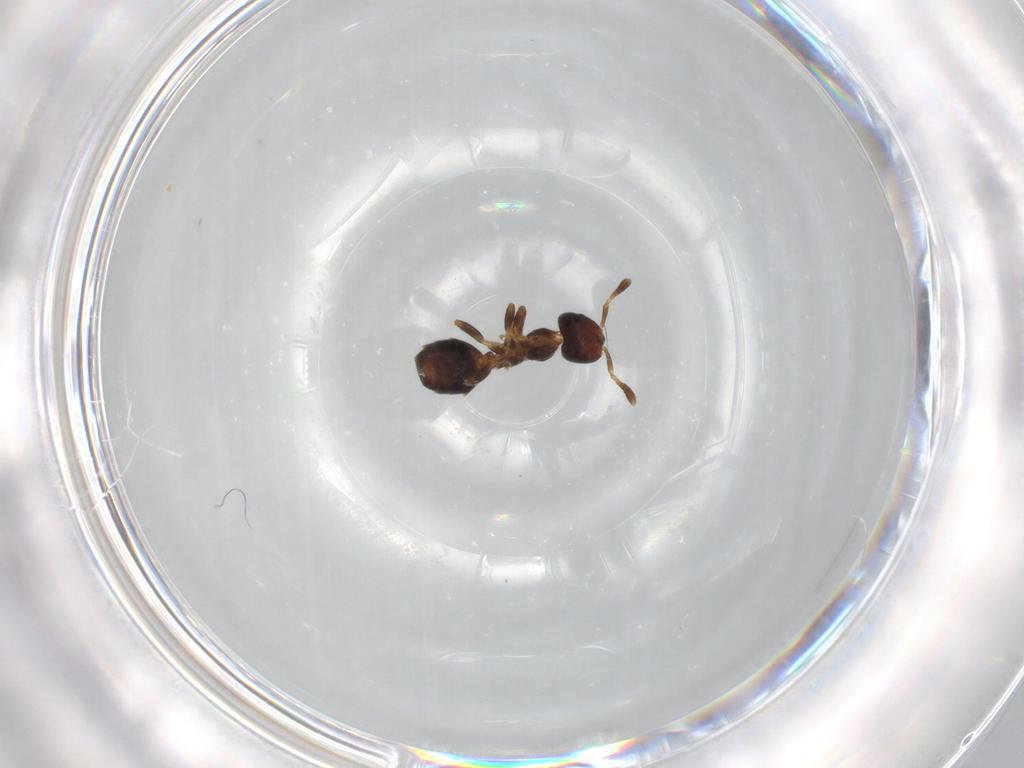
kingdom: Animalia
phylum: Arthropoda
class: Insecta
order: Hymenoptera
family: Formicidae
